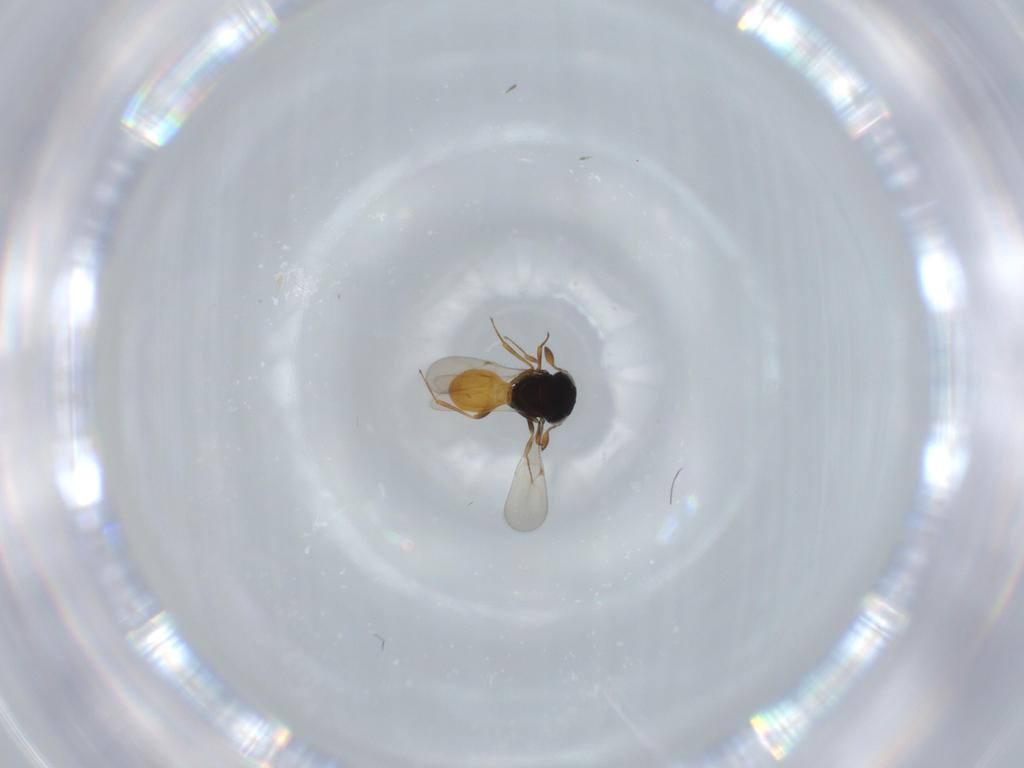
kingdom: Animalia
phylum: Arthropoda
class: Insecta
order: Hymenoptera
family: Scelionidae
